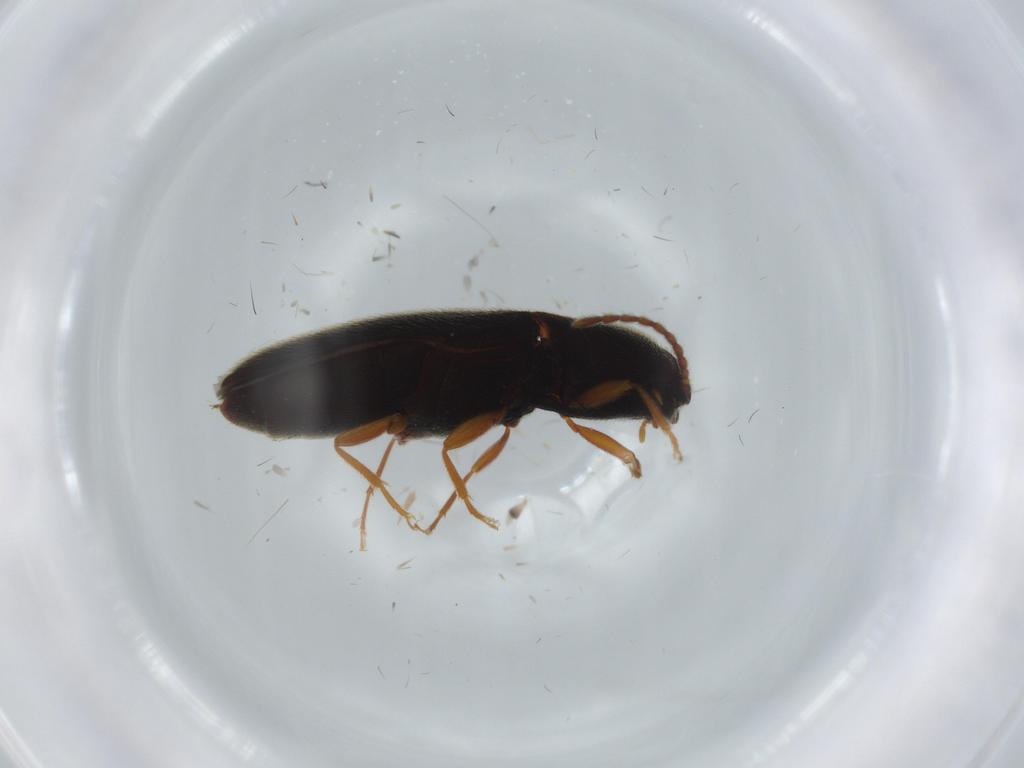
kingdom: Animalia
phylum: Arthropoda
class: Insecta
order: Coleoptera
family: Elateridae
